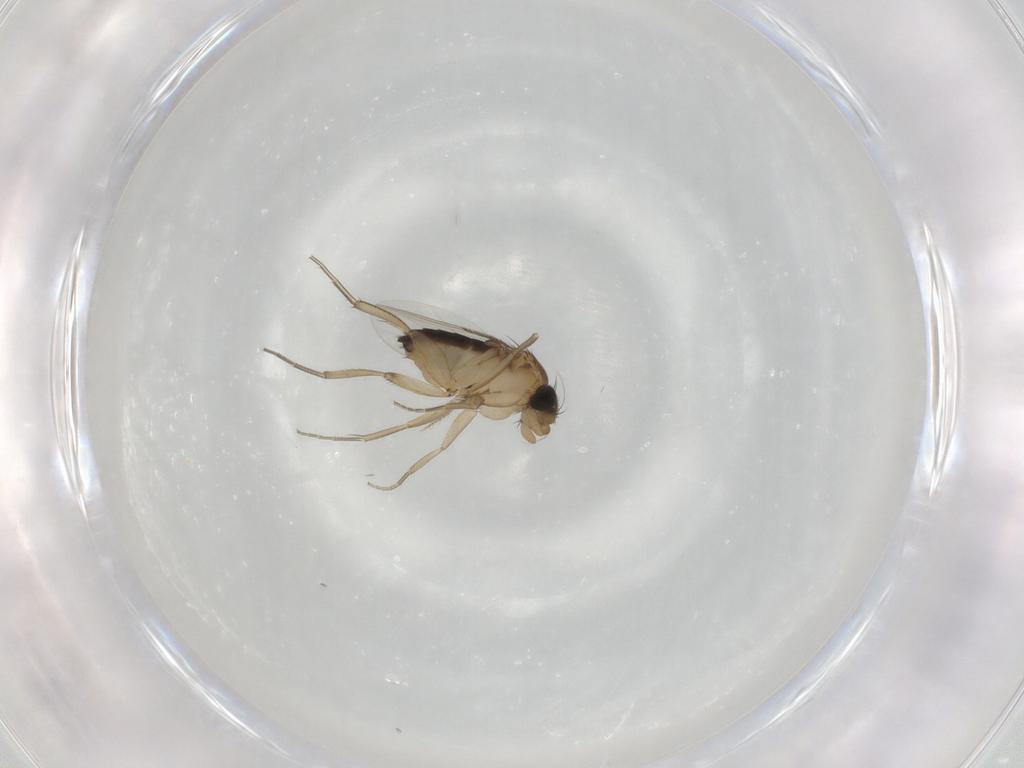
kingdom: Animalia
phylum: Arthropoda
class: Insecta
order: Diptera
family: Corethrellidae
